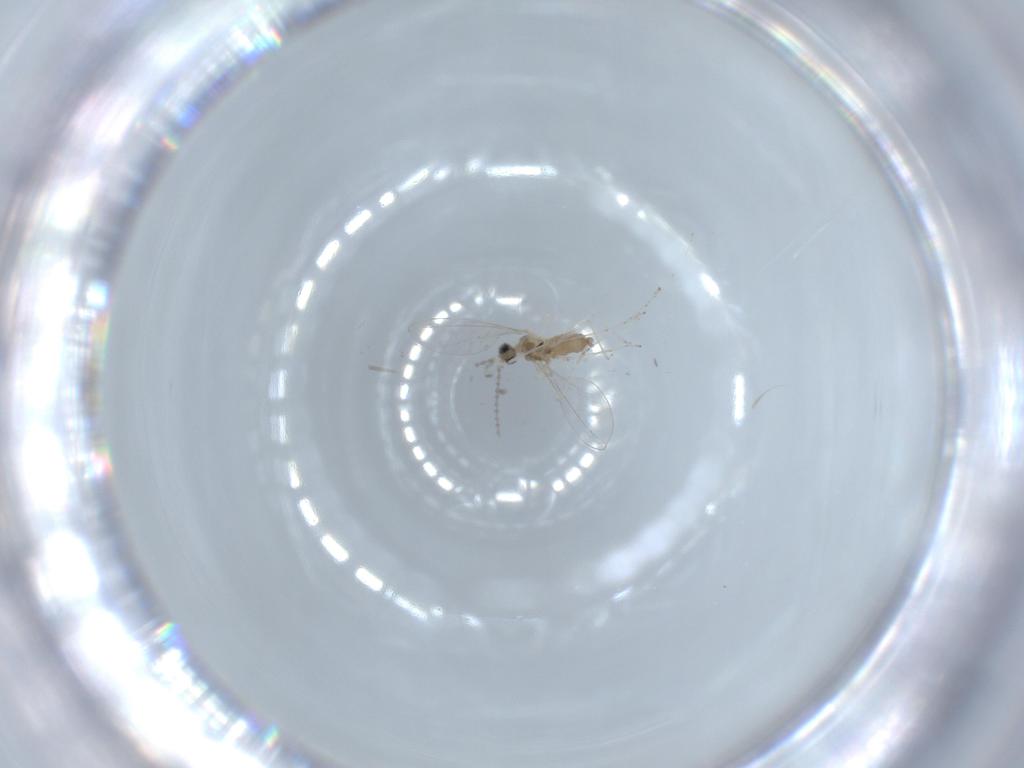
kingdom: Animalia
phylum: Arthropoda
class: Insecta
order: Diptera
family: Cecidomyiidae
